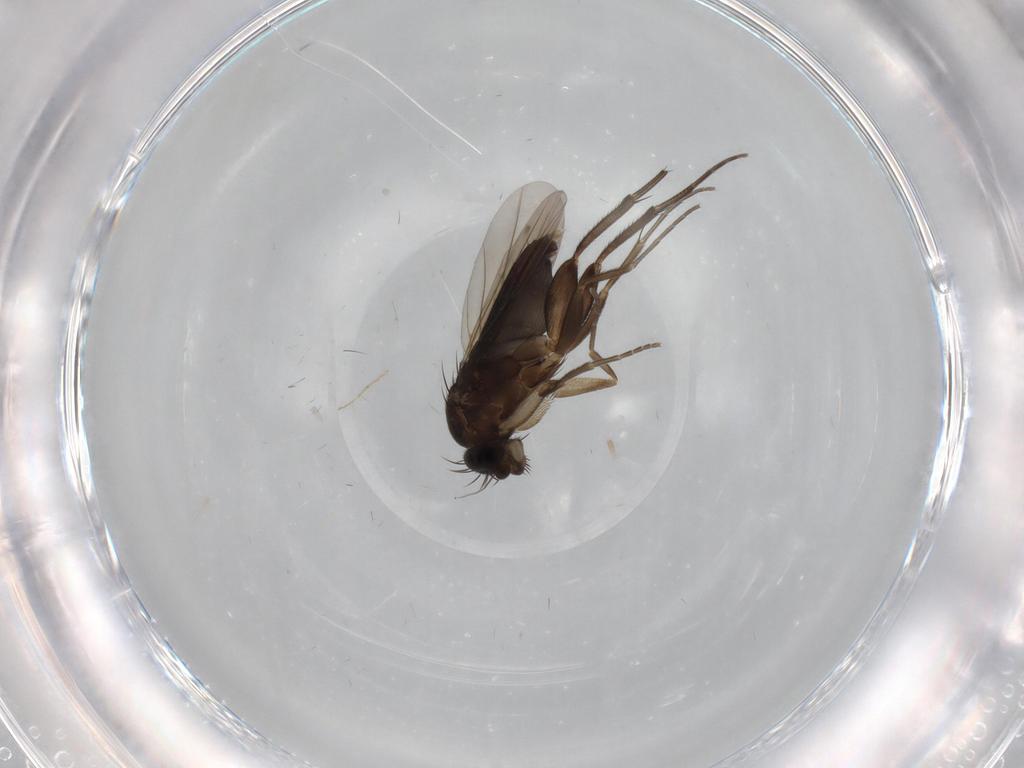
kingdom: Animalia
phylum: Arthropoda
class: Insecta
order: Diptera
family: Phoridae
